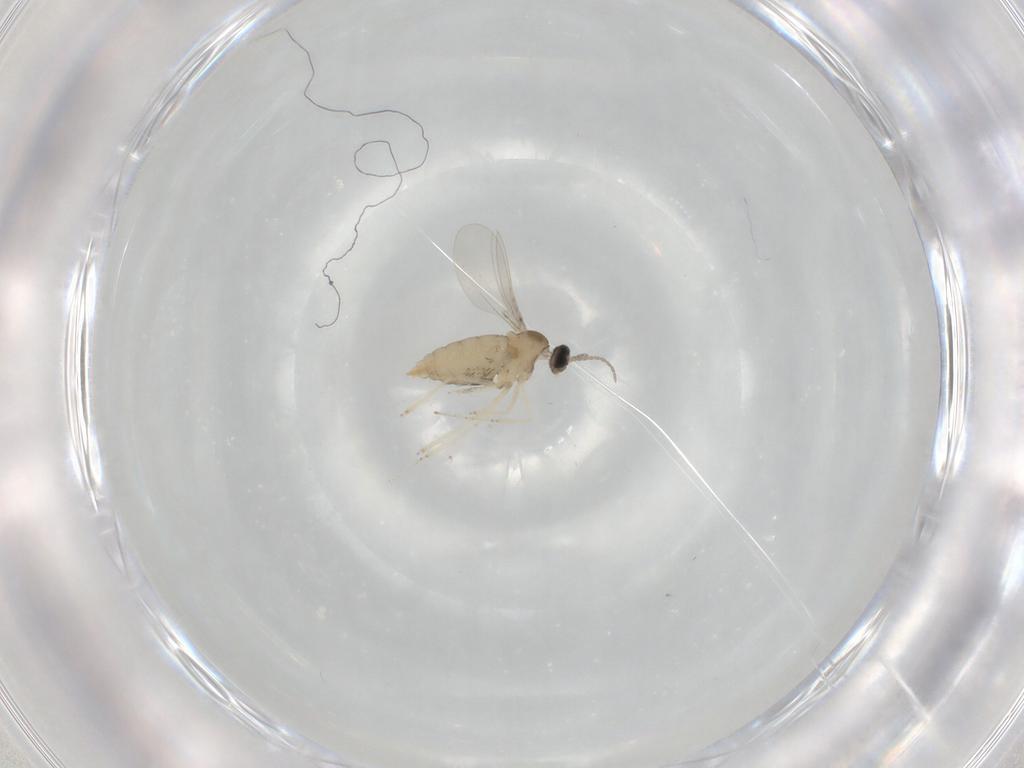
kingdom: Animalia
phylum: Arthropoda
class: Insecta
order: Diptera
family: Cecidomyiidae
